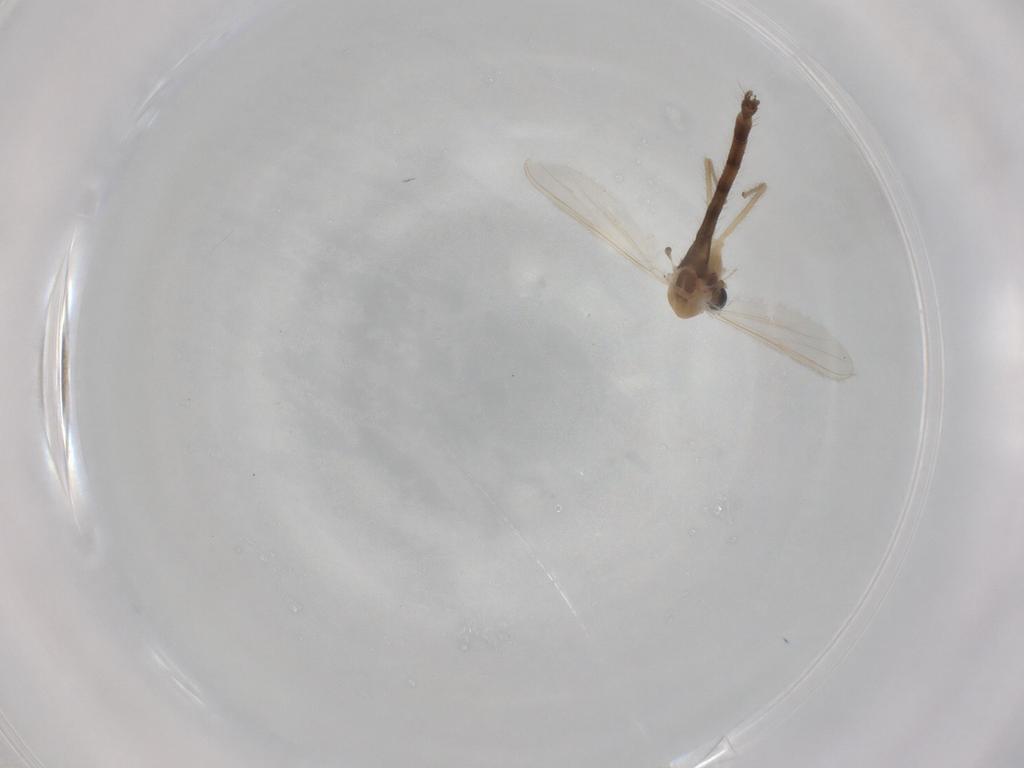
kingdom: Animalia
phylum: Arthropoda
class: Insecta
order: Diptera
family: Chironomidae
